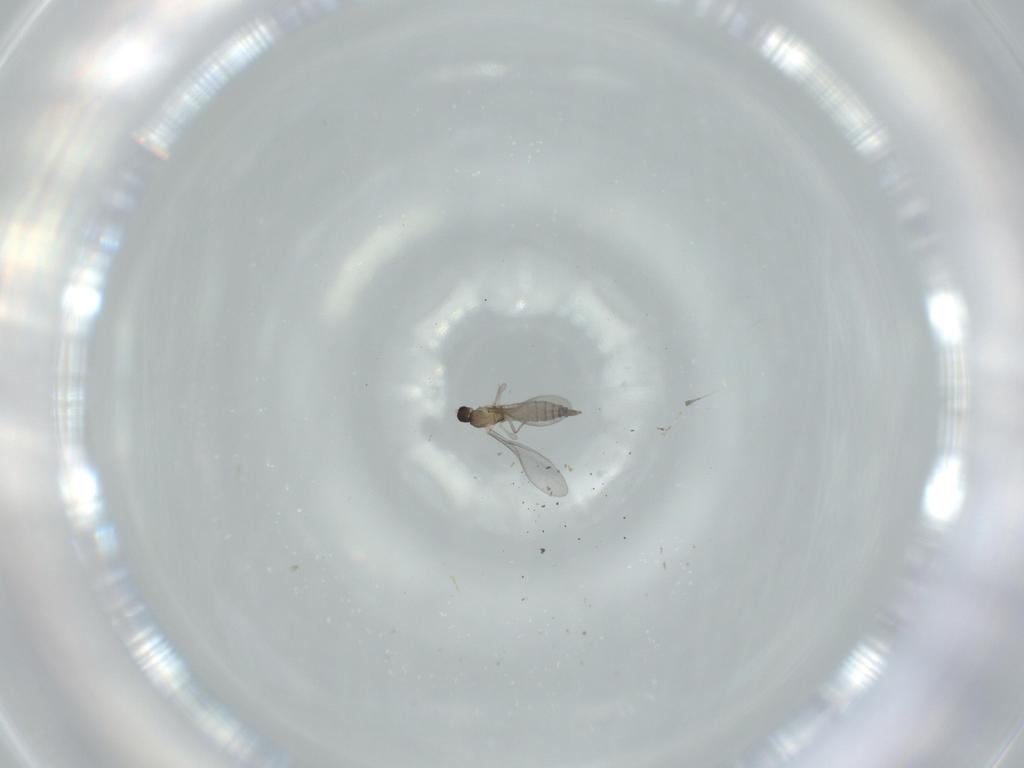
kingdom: Animalia
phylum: Arthropoda
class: Insecta
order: Diptera
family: Cecidomyiidae
